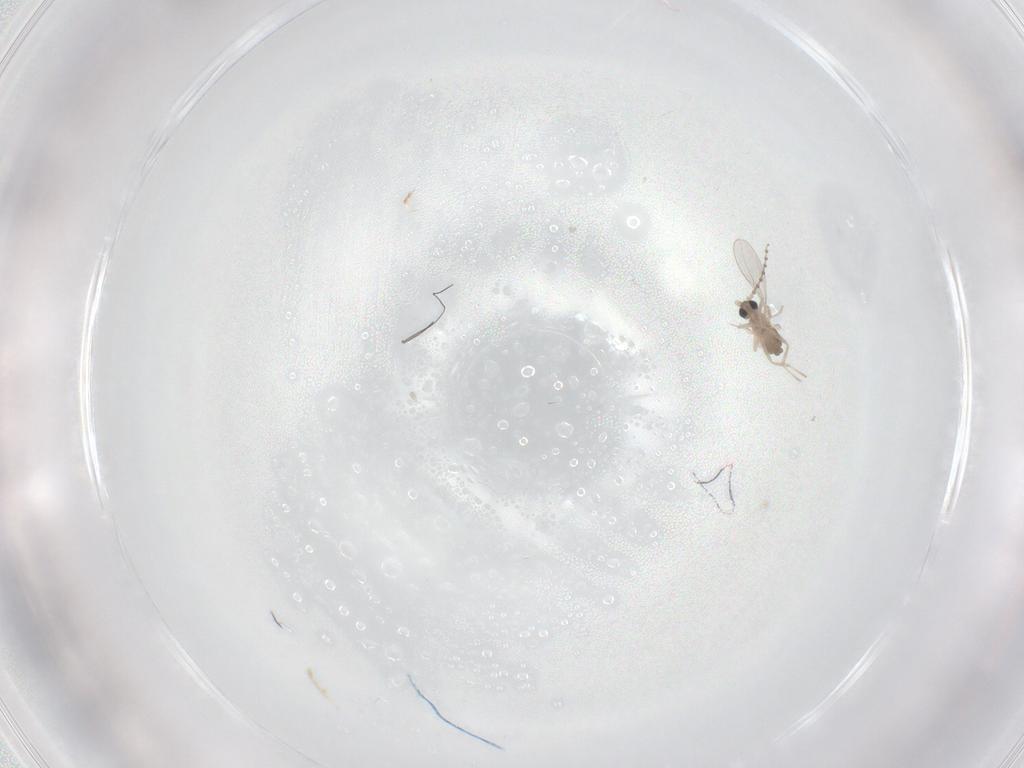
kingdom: Animalia
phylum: Arthropoda
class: Insecta
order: Diptera
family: Cecidomyiidae
